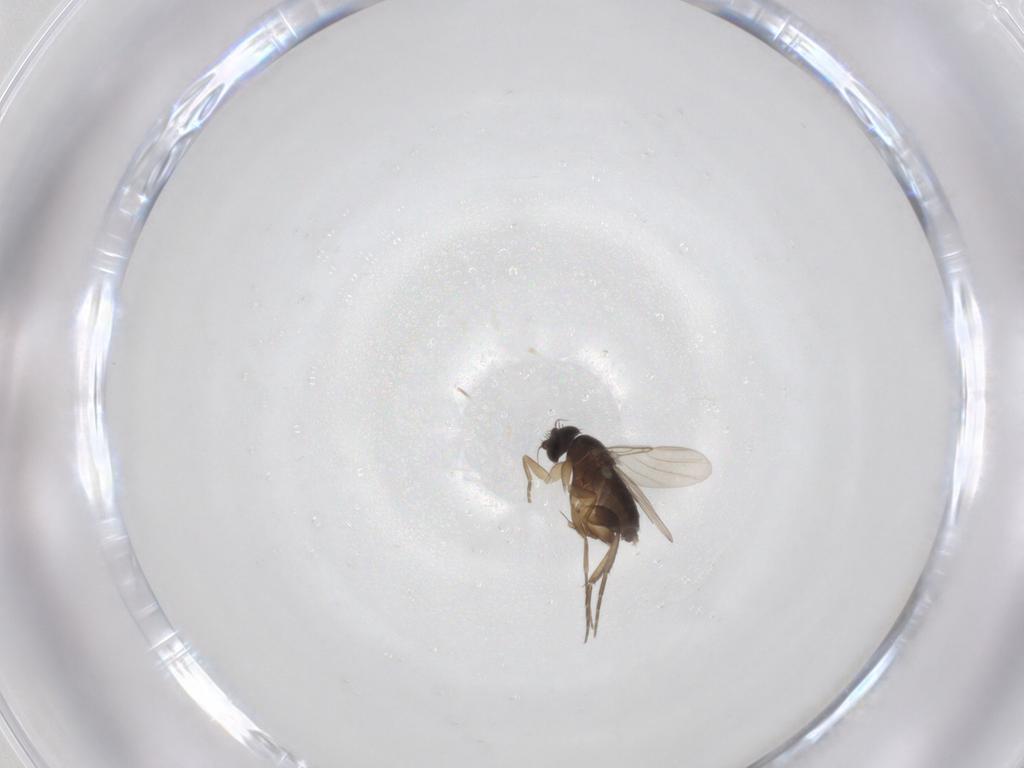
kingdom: Animalia
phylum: Arthropoda
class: Insecta
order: Diptera
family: Phoridae
